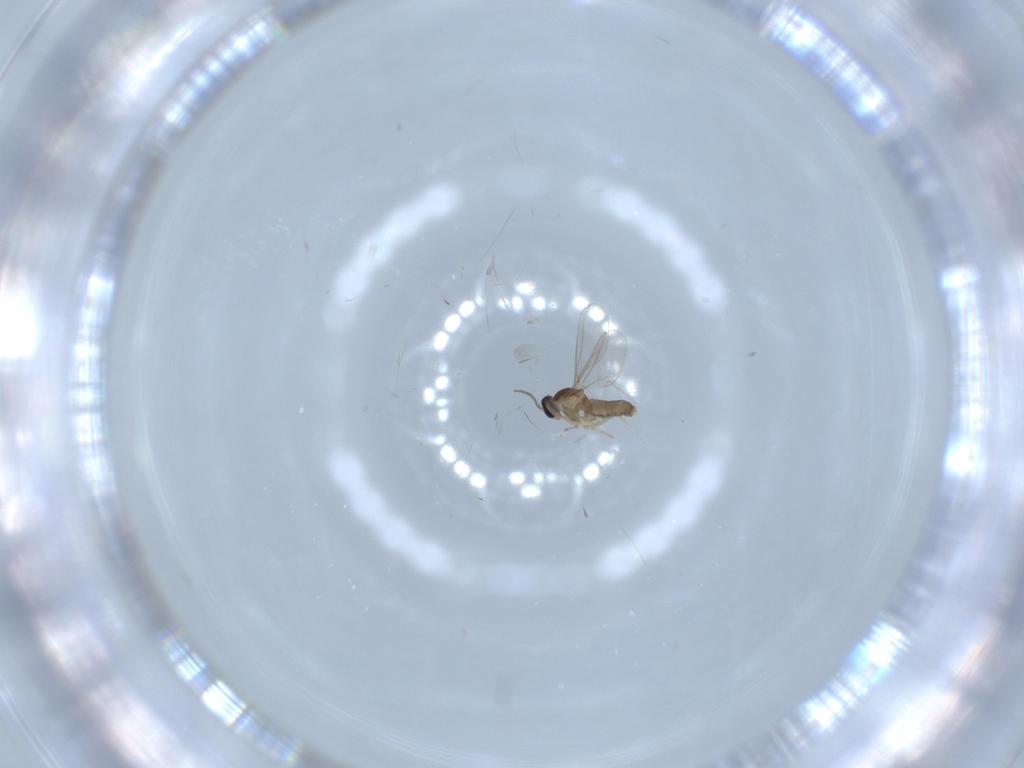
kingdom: Animalia
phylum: Arthropoda
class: Insecta
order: Diptera
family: Cecidomyiidae
